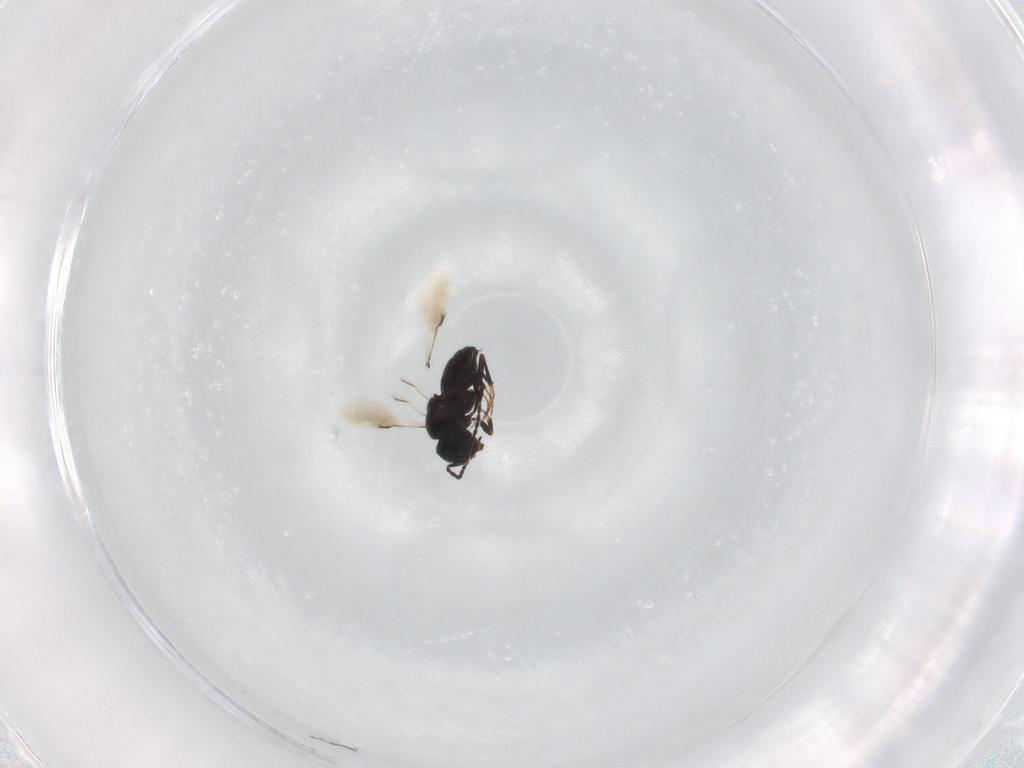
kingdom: Animalia
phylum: Arthropoda
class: Insecta
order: Hymenoptera
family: Scelionidae
